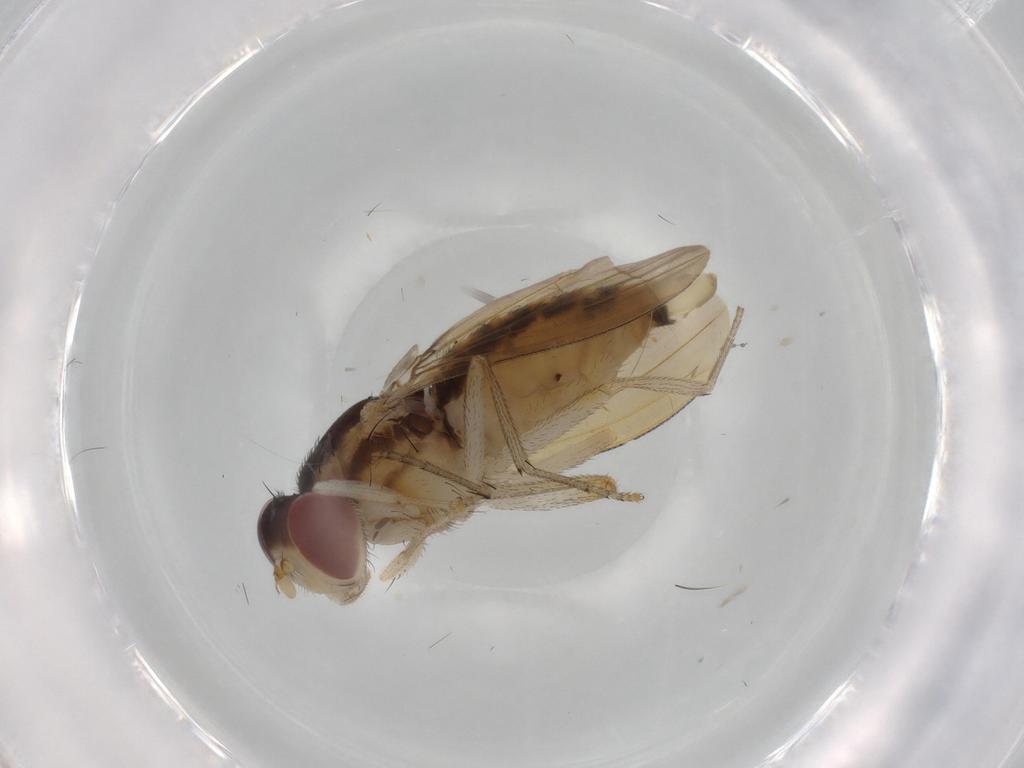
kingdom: Animalia
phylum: Arthropoda
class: Insecta
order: Diptera
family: Cecidomyiidae
